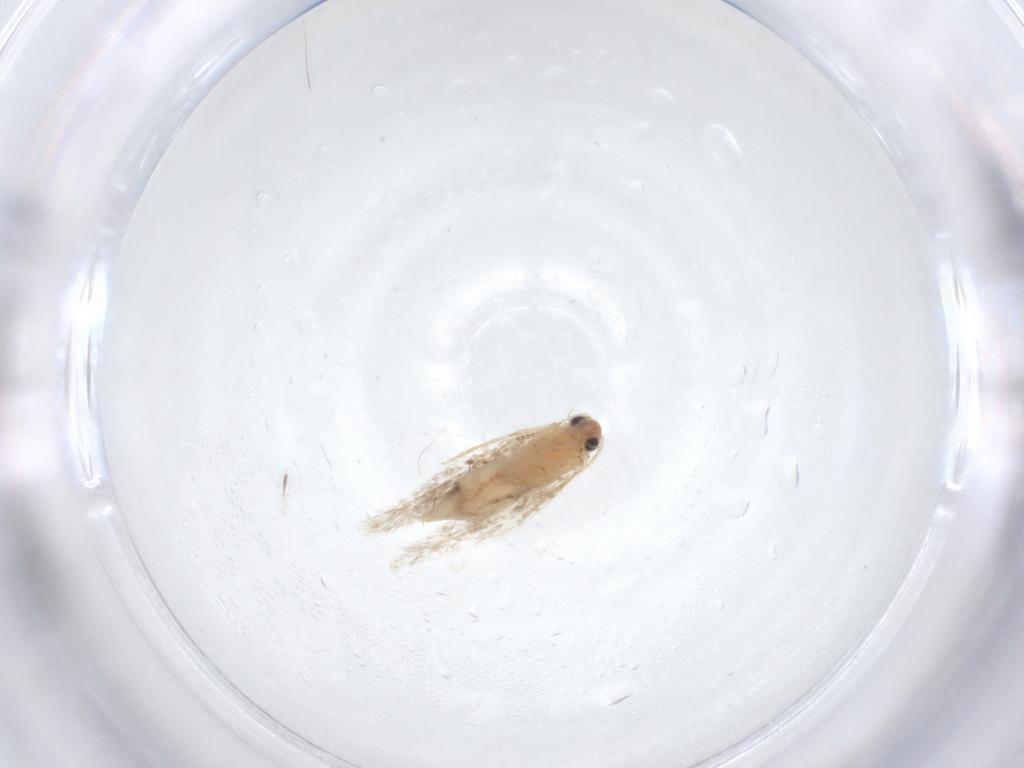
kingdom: Animalia
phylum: Arthropoda
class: Insecta
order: Lepidoptera
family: Tineidae
